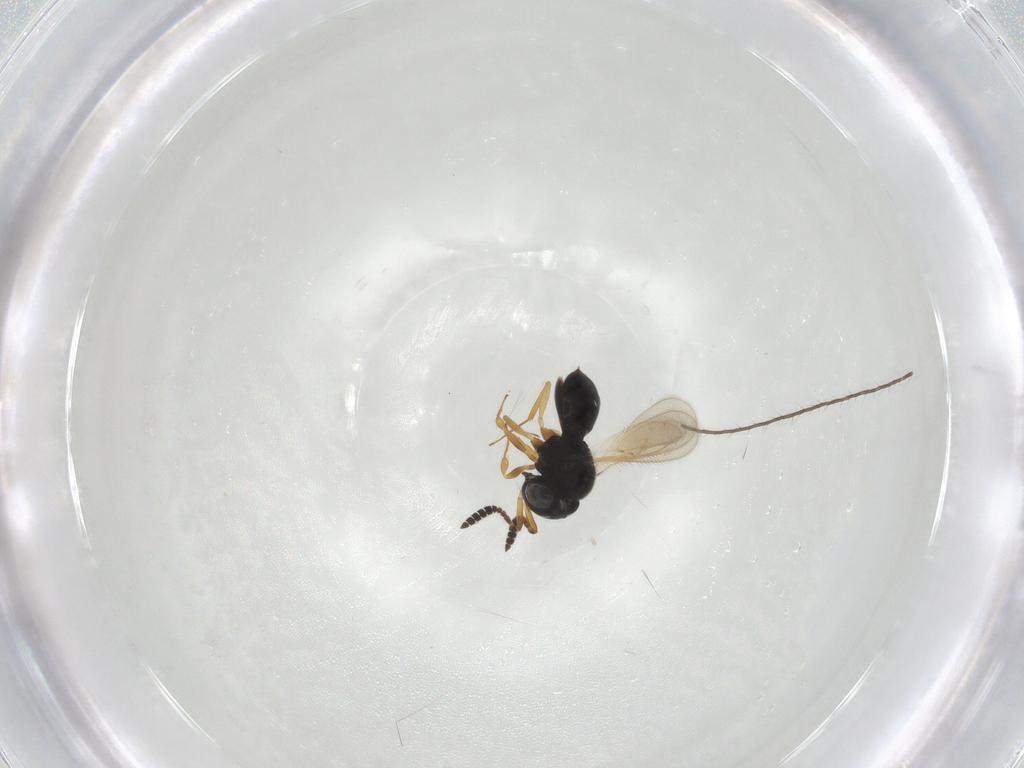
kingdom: Animalia
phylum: Arthropoda
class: Insecta
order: Hymenoptera
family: Scelionidae
